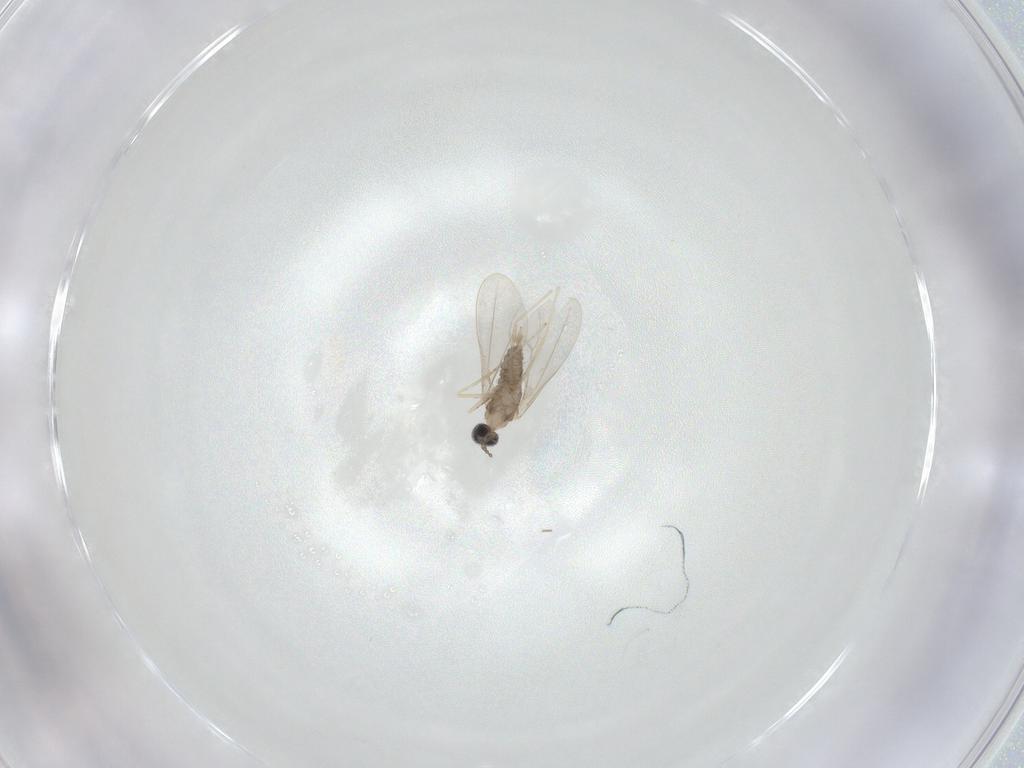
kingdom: Animalia
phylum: Arthropoda
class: Insecta
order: Diptera
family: Cecidomyiidae
